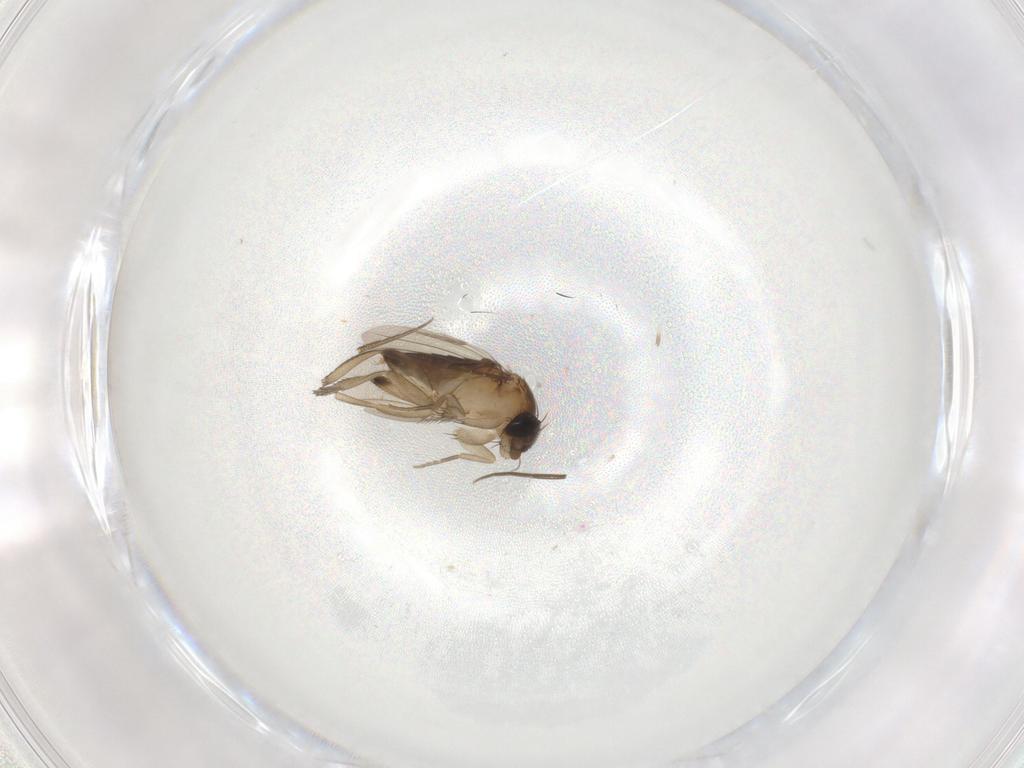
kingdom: Animalia
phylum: Arthropoda
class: Insecta
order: Diptera
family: Phoridae
